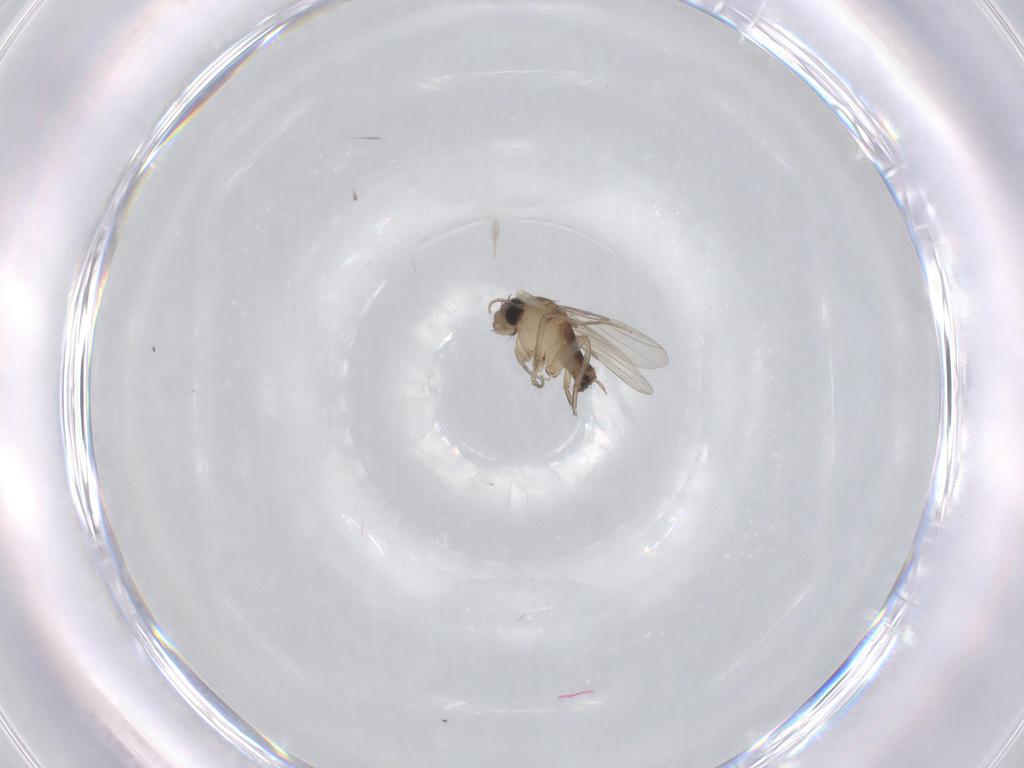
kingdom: Animalia
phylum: Arthropoda
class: Insecta
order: Diptera
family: Phoridae
